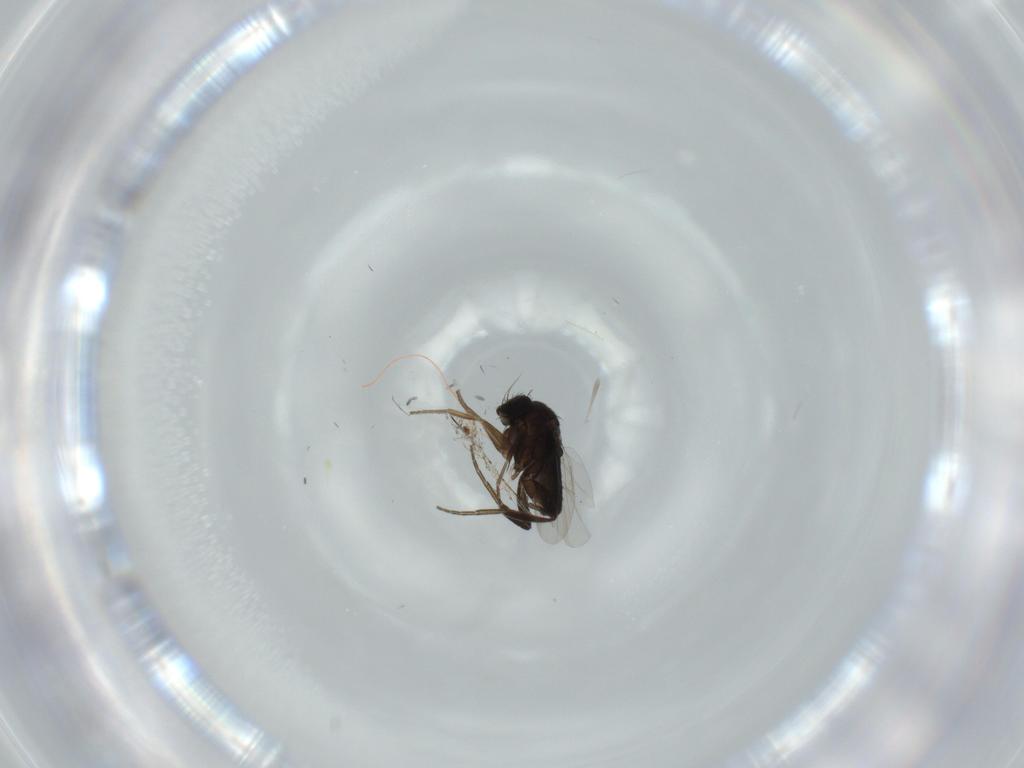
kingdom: Animalia
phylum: Arthropoda
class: Insecta
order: Diptera
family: Phoridae
